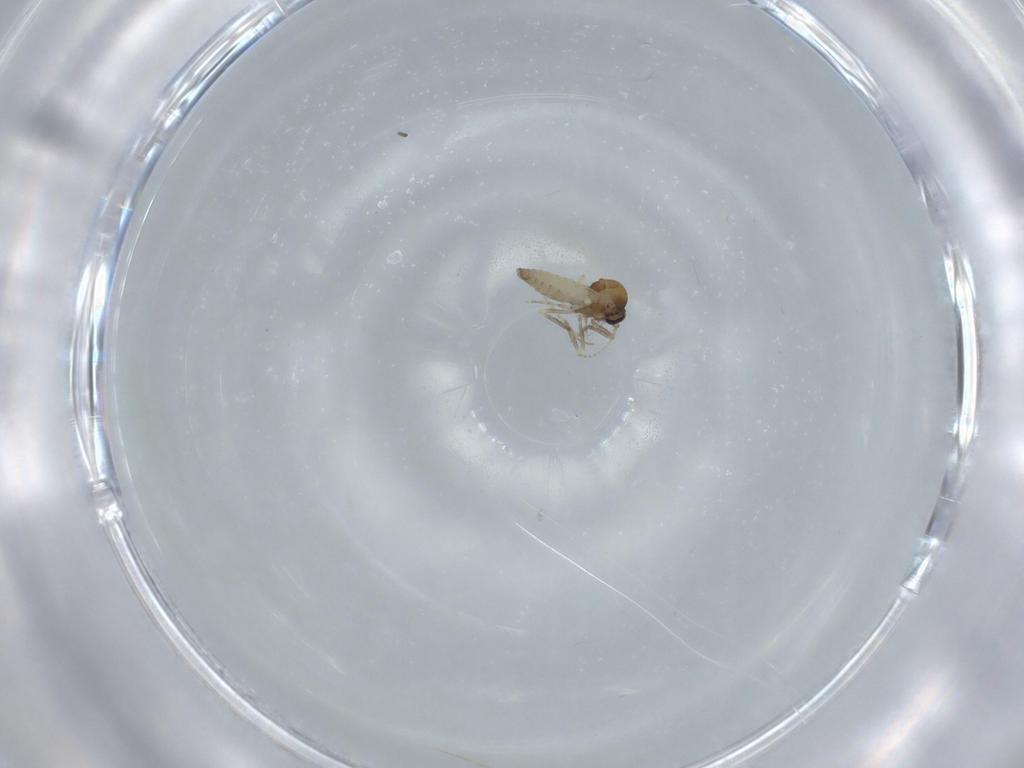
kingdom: Animalia
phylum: Arthropoda
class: Insecta
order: Diptera
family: Ceratopogonidae
